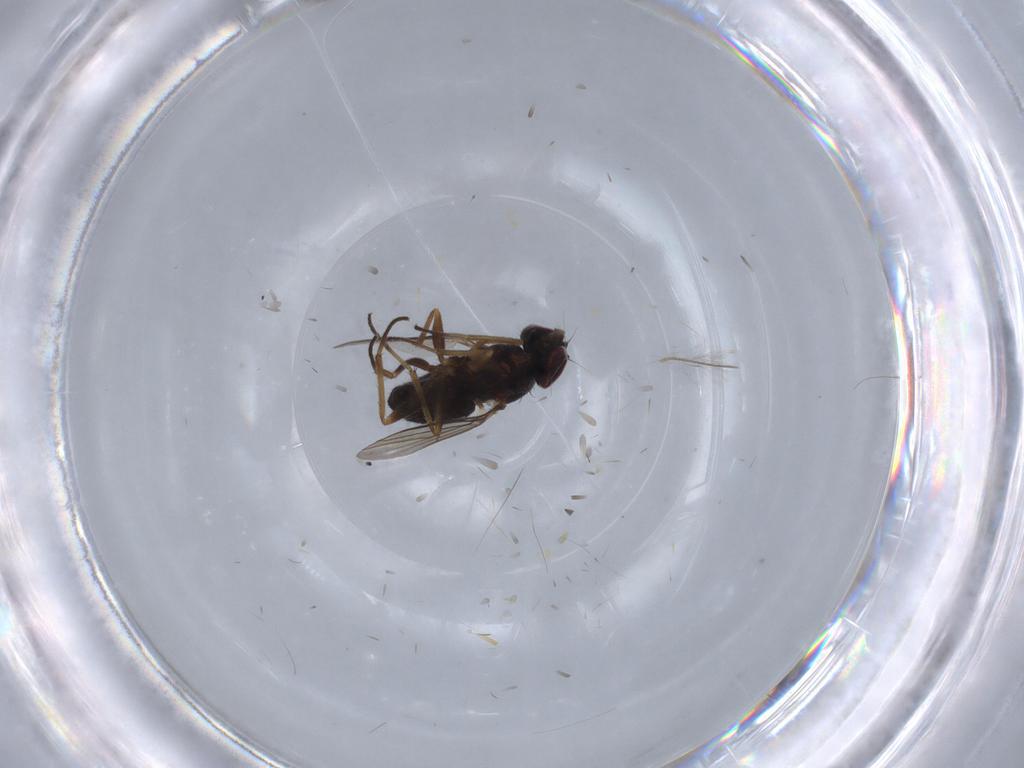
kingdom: Animalia
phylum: Arthropoda
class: Insecta
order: Diptera
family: Dolichopodidae
